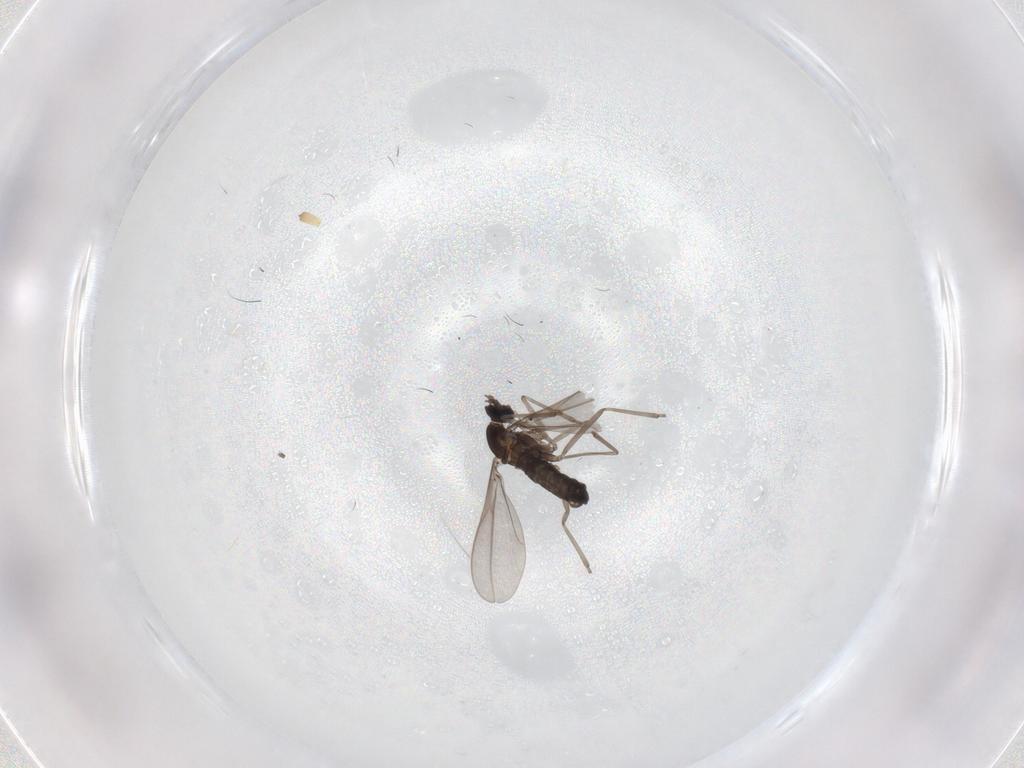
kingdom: Animalia
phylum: Arthropoda
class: Insecta
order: Diptera
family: Cecidomyiidae
